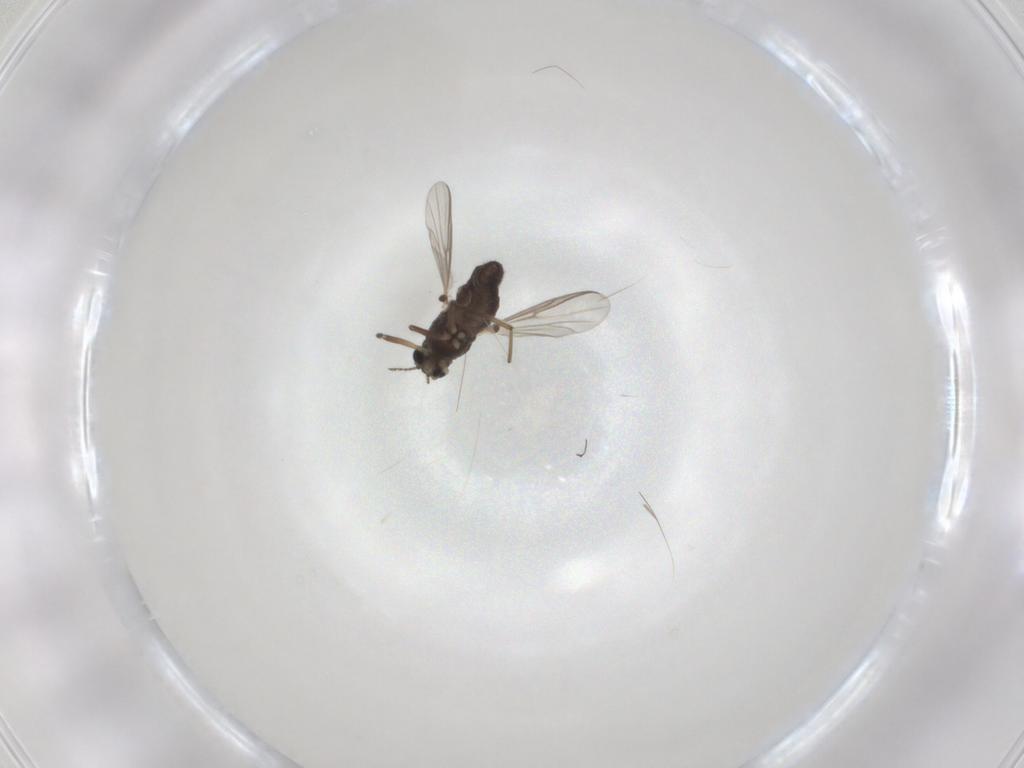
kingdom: Animalia
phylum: Arthropoda
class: Insecta
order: Diptera
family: Chironomidae
